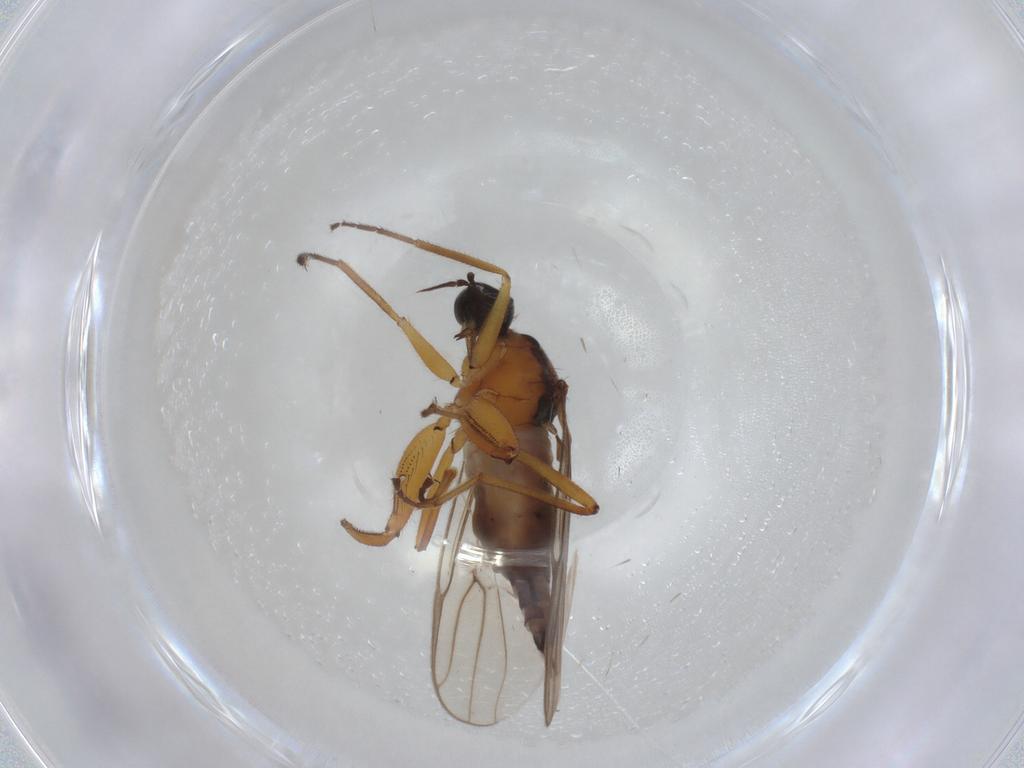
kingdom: Animalia
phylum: Arthropoda
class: Insecta
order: Diptera
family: Hybotidae
